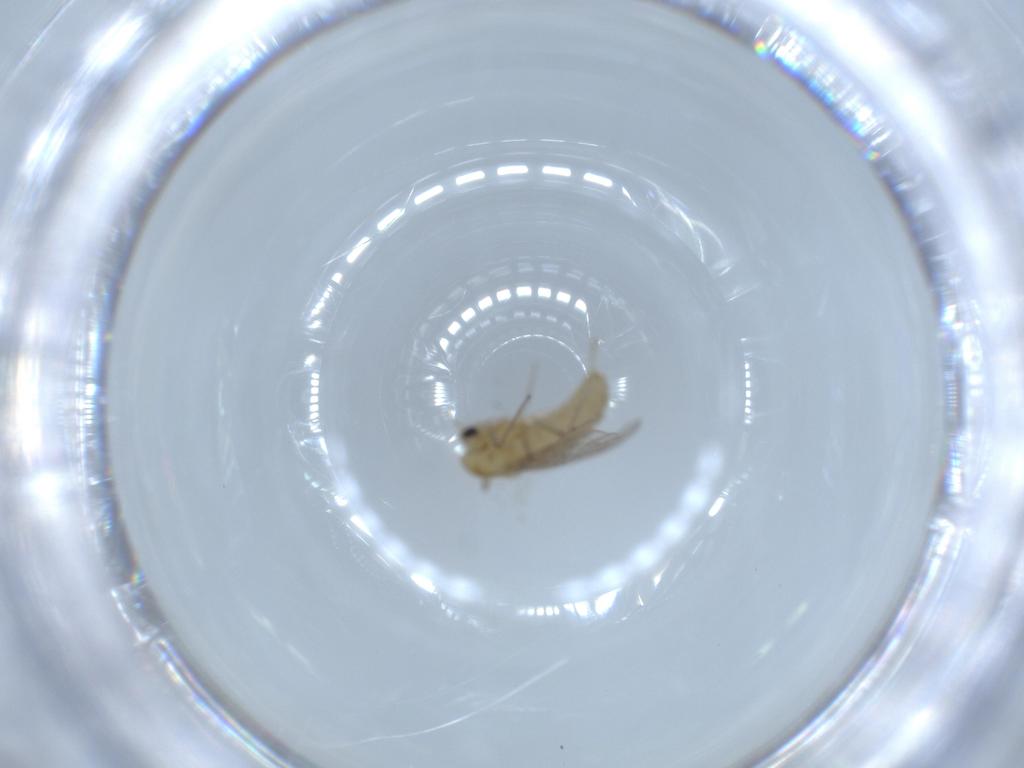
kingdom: Animalia
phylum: Arthropoda
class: Insecta
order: Diptera
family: Chironomidae
